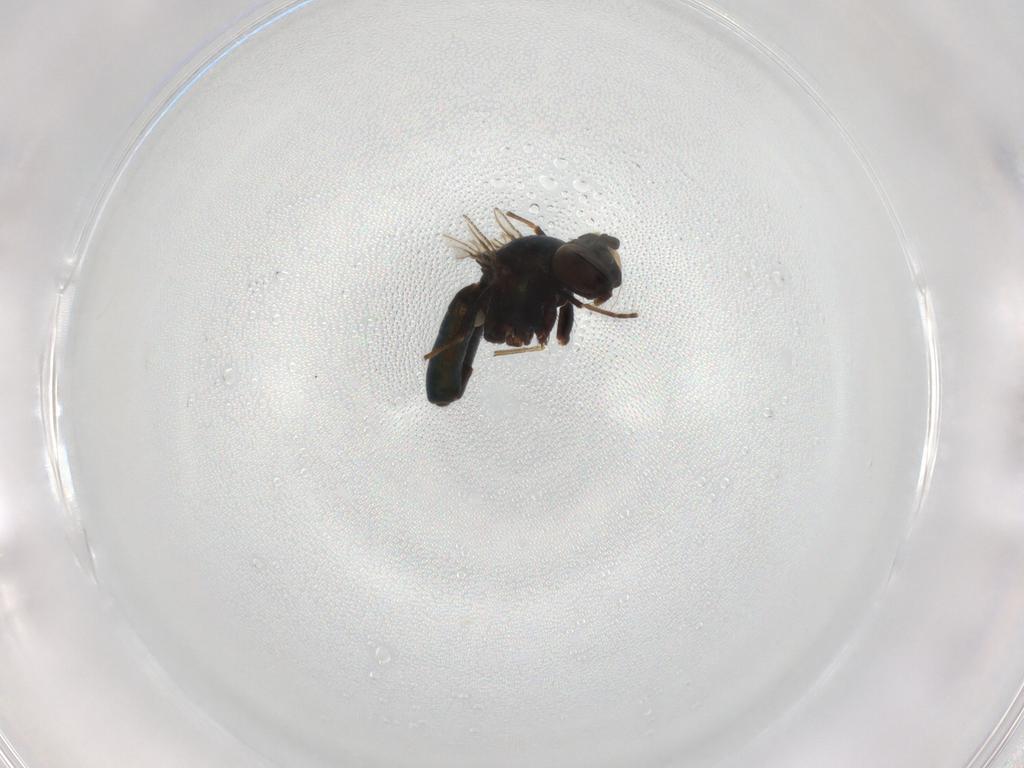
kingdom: Animalia
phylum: Arthropoda
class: Insecta
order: Diptera
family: Ephydridae
